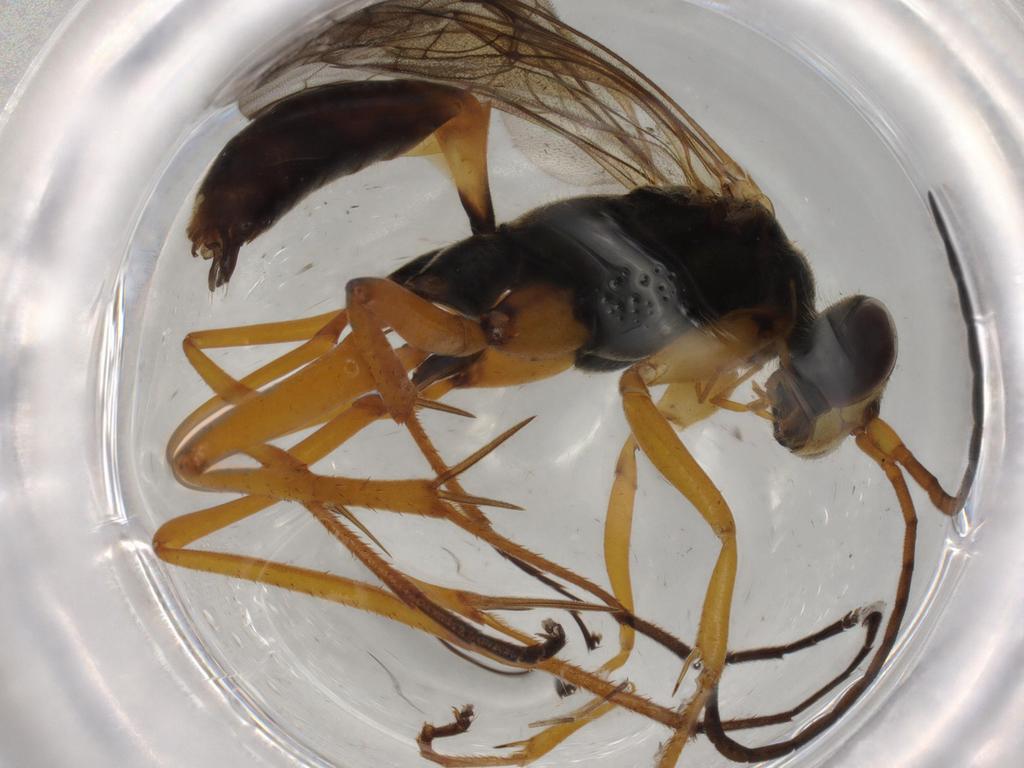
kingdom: Animalia
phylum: Arthropoda
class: Insecta
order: Hymenoptera
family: Pompilidae
